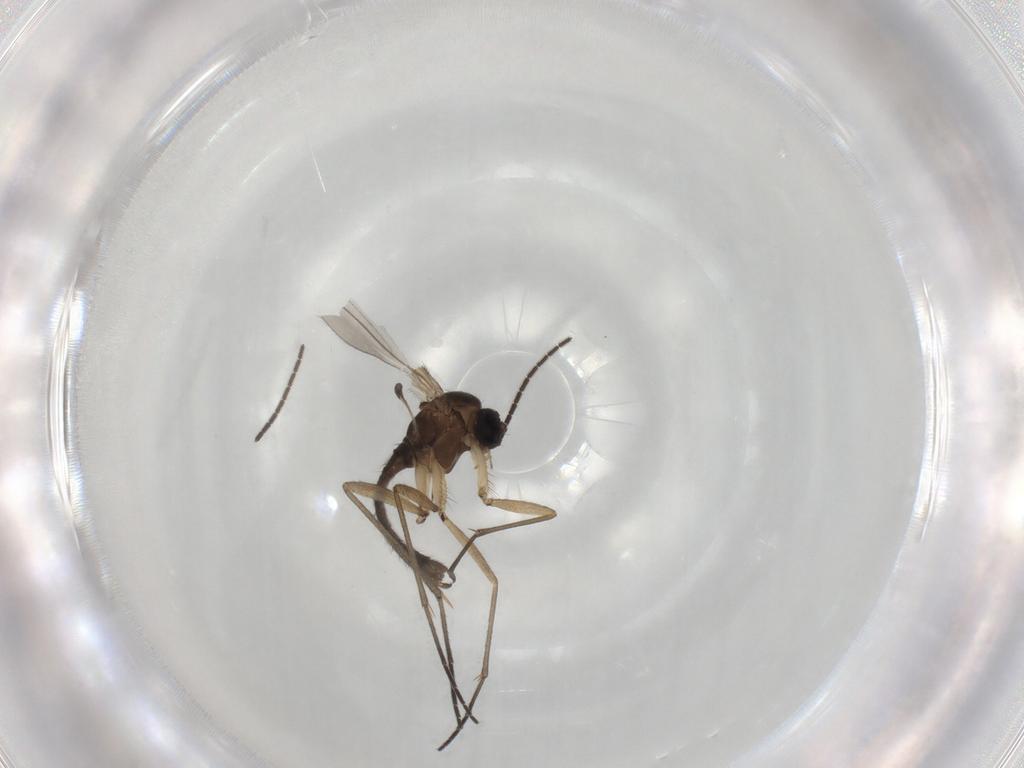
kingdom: Animalia
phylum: Arthropoda
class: Insecta
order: Diptera
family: Sciaridae
